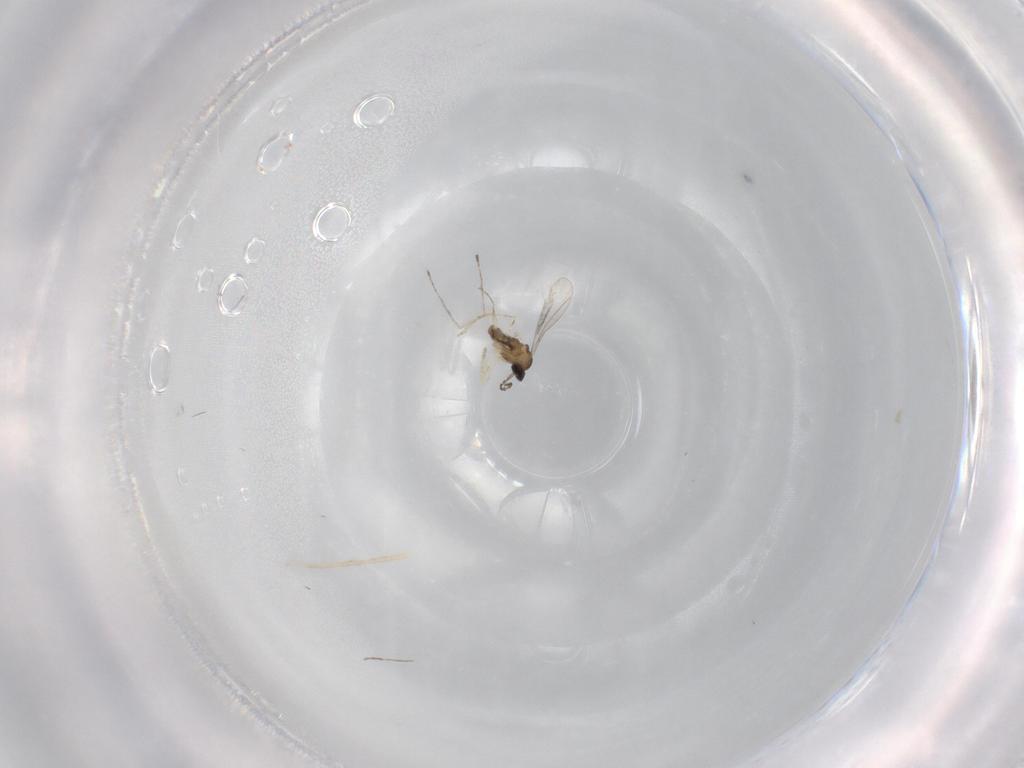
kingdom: Animalia
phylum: Arthropoda
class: Insecta
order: Diptera
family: Cecidomyiidae
